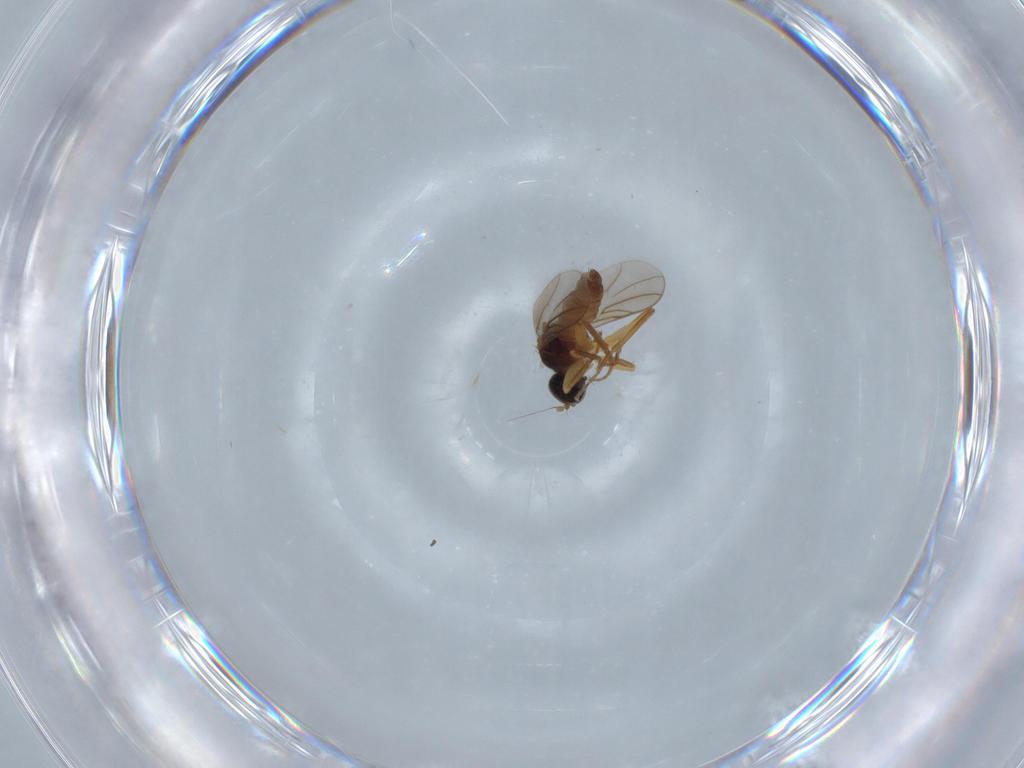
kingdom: Animalia
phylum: Arthropoda
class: Insecta
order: Diptera
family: Hybotidae
